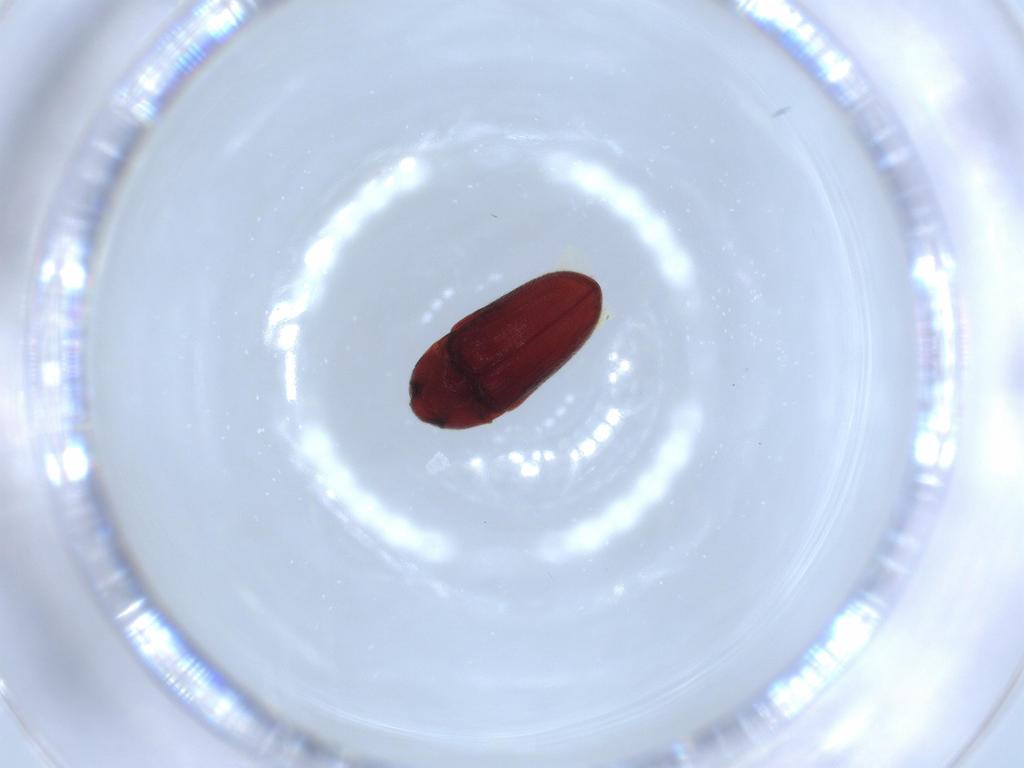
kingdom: Animalia
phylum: Arthropoda
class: Insecta
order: Coleoptera
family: Throscidae
